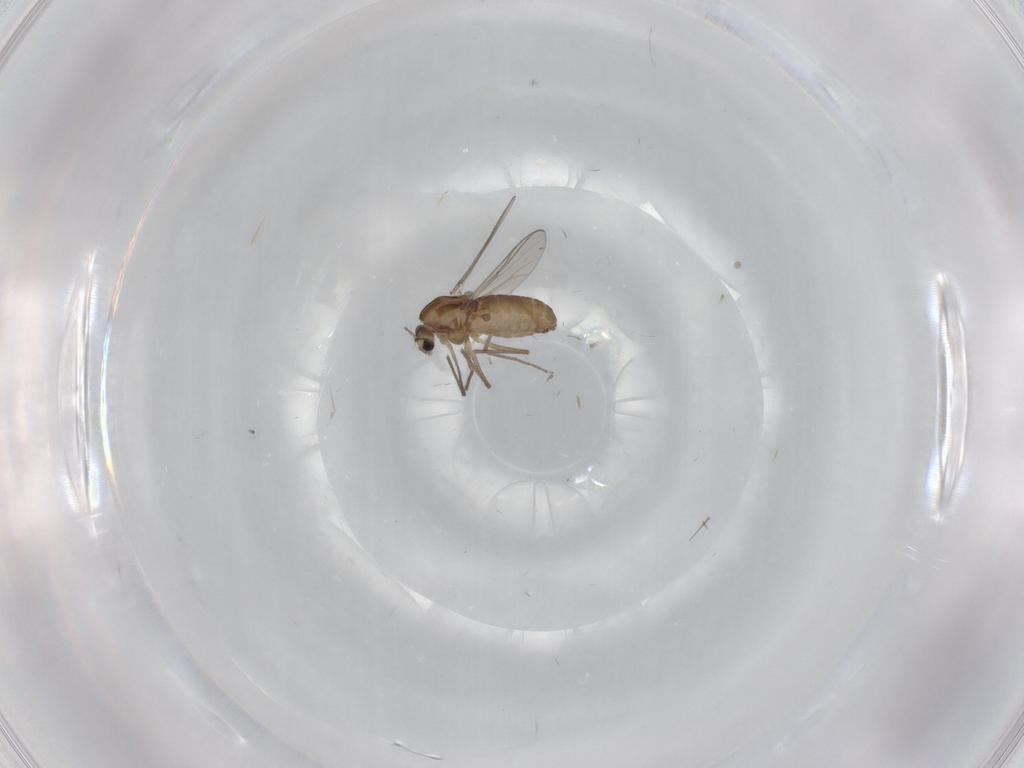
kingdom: Animalia
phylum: Arthropoda
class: Insecta
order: Diptera
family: Chironomidae
